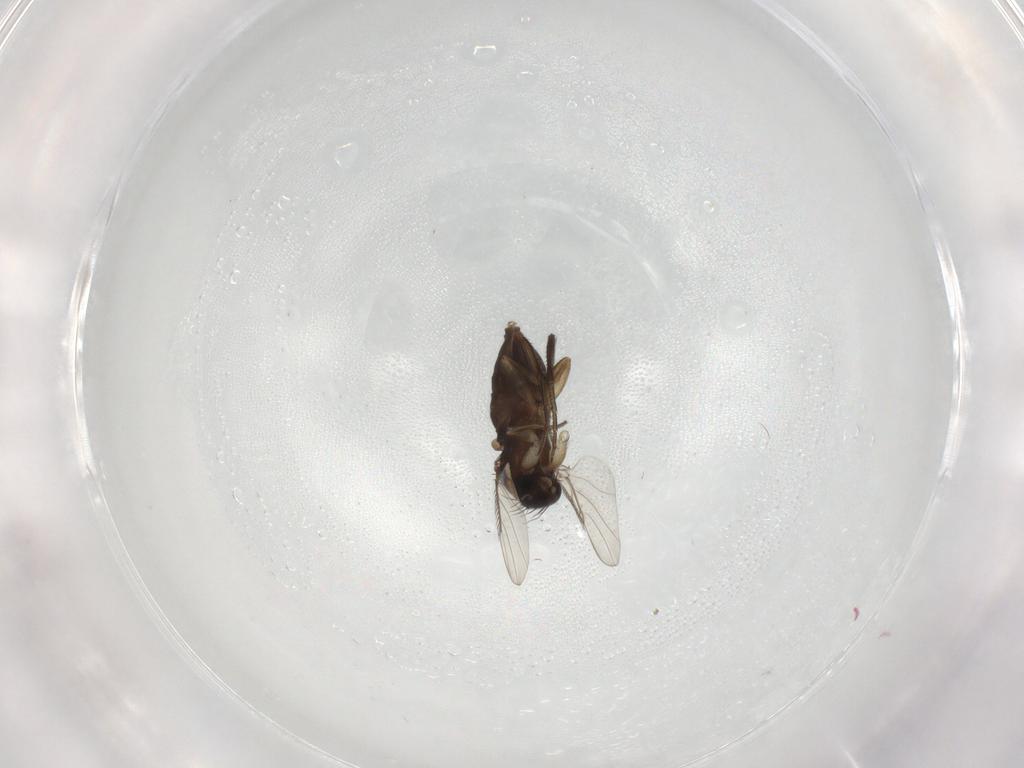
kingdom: Animalia
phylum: Arthropoda
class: Insecta
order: Diptera
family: Phoridae
